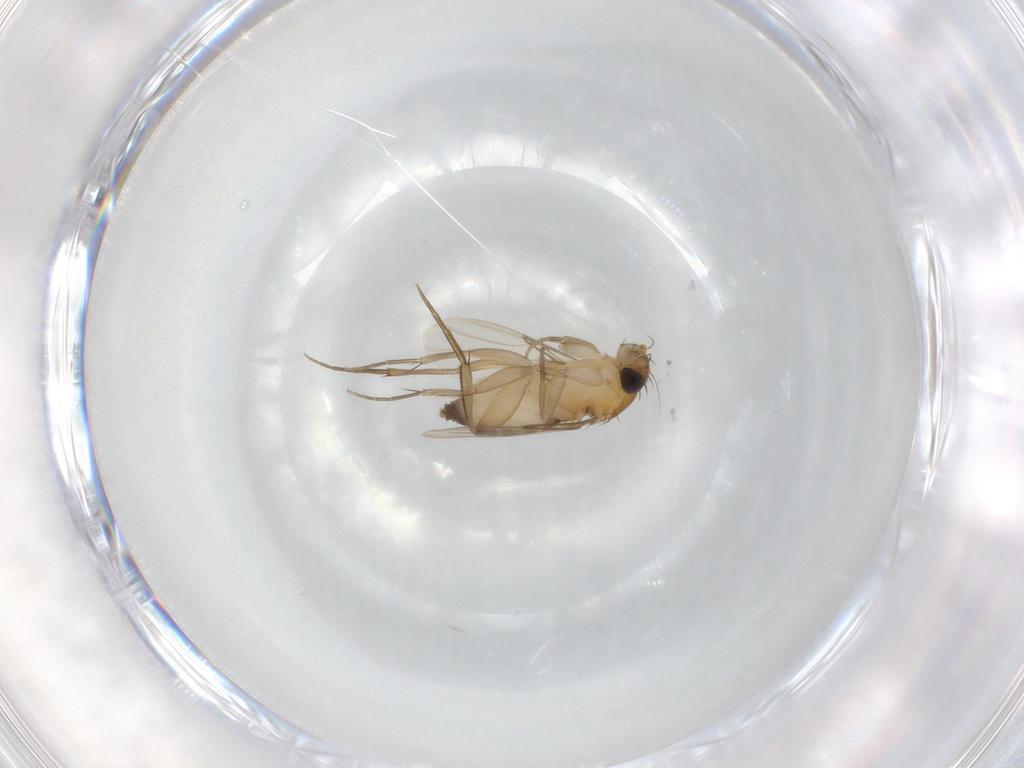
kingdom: Animalia
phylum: Arthropoda
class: Insecta
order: Diptera
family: Phoridae
